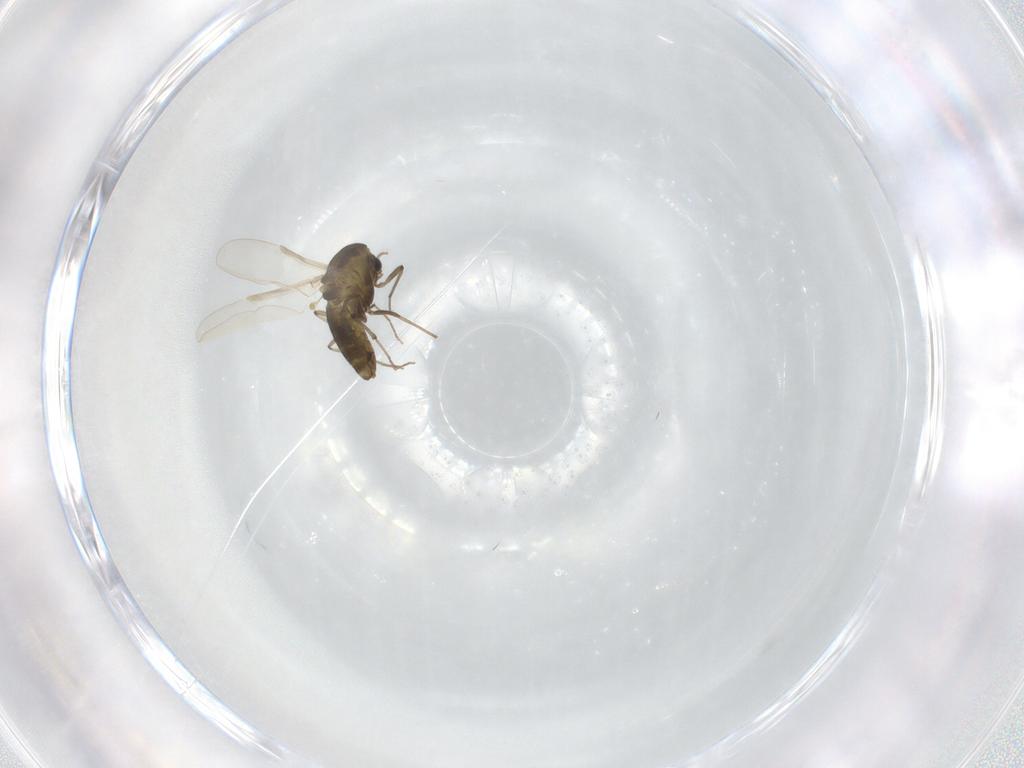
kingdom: Animalia
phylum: Arthropoda
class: Insecta
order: Diptera
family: Chironomidae
